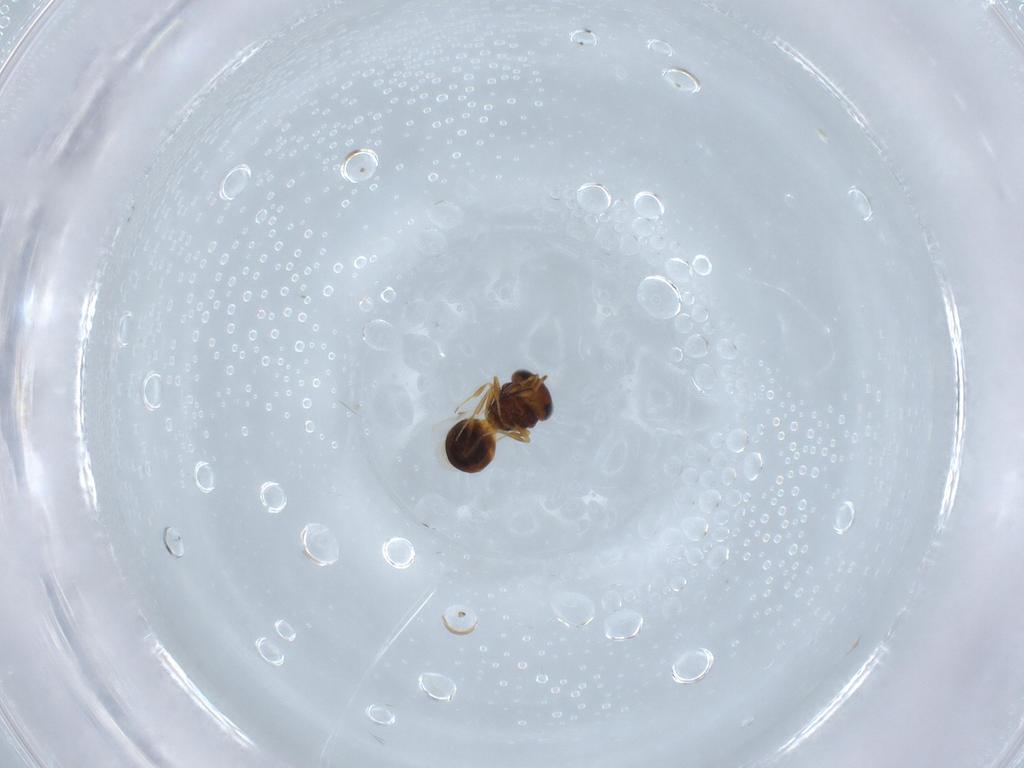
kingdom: Animalia
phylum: Arthropoda
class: Insecta
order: Hymenoptera
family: Scelionidae
